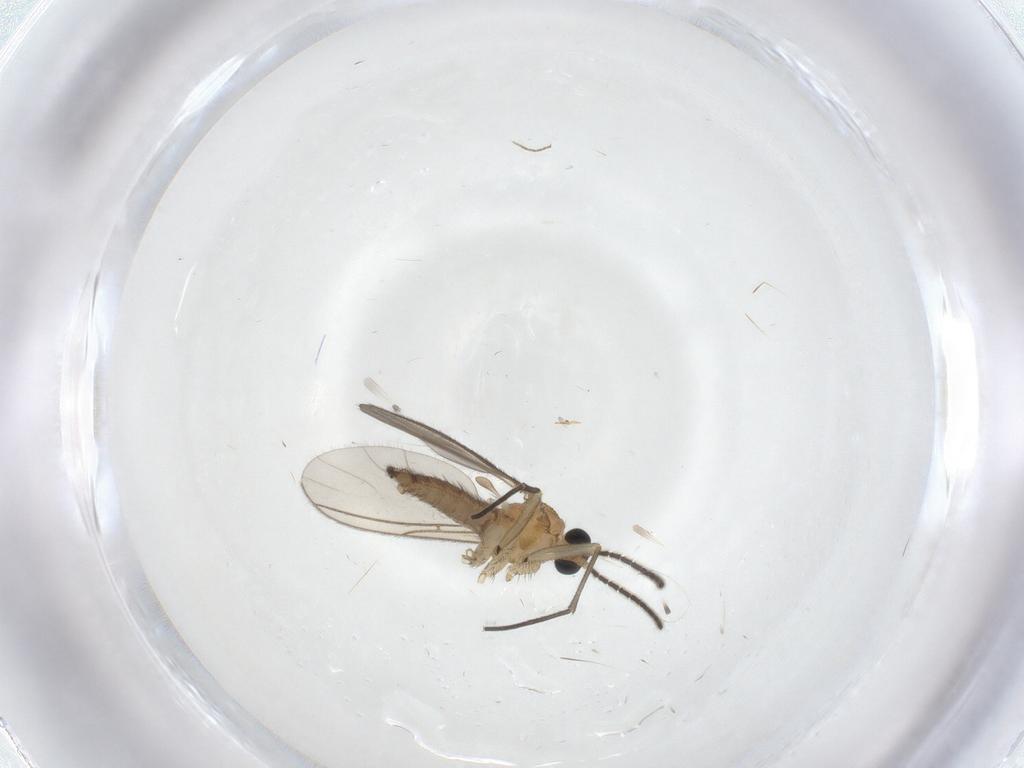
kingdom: Animalia
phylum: Arthropoda
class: Insecta
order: Diptera
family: Sciaridae
